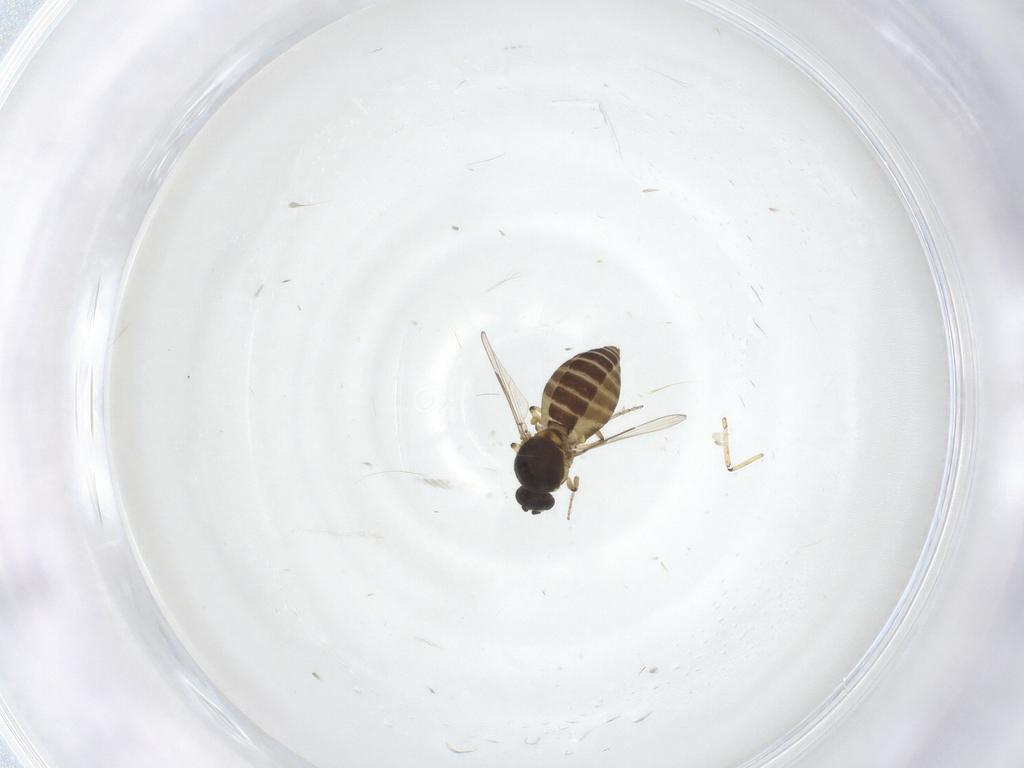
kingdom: Animalia
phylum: Arthropoda
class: Insecta
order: Diptera
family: Ceratopogonidae
